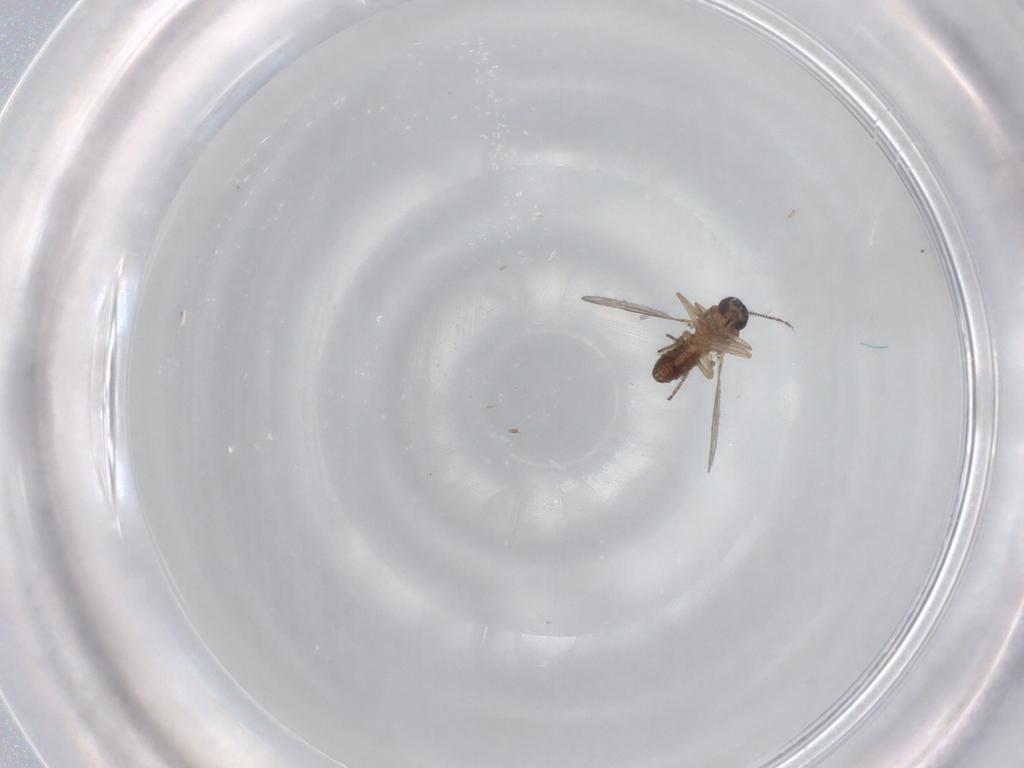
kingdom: Animalia
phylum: Arthropoda
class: Insecta
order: Diptera
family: Ceratopogonidae
